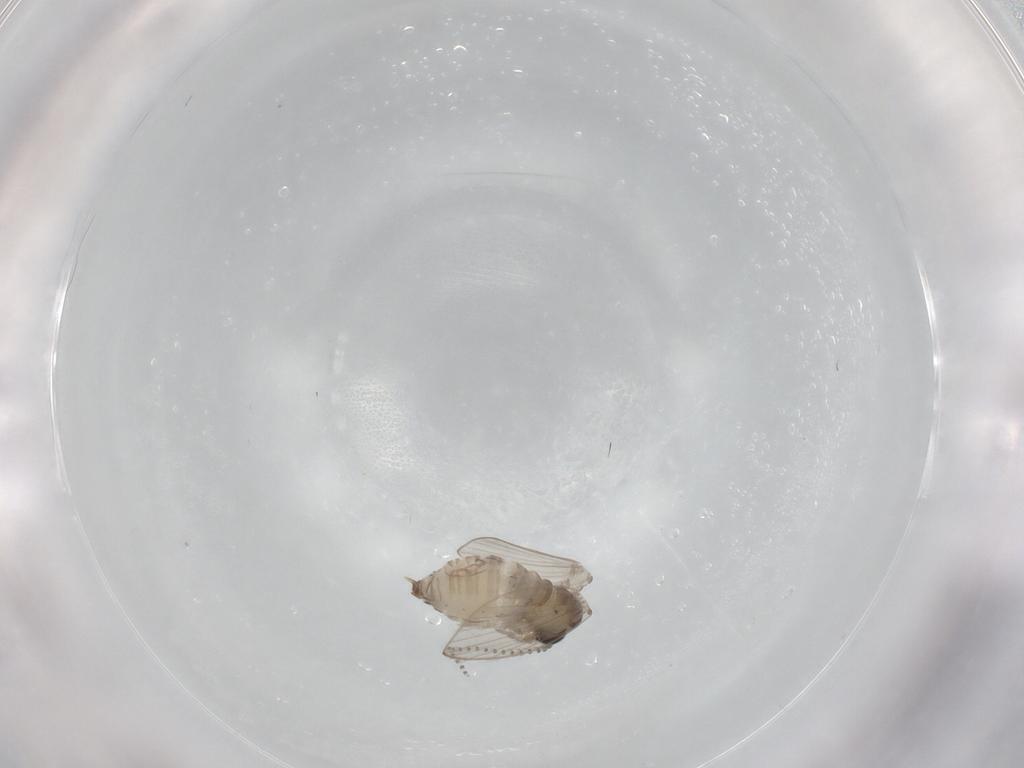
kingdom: Animalia
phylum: Arthropoda
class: Insecta
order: Diptera
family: Psychodidae
